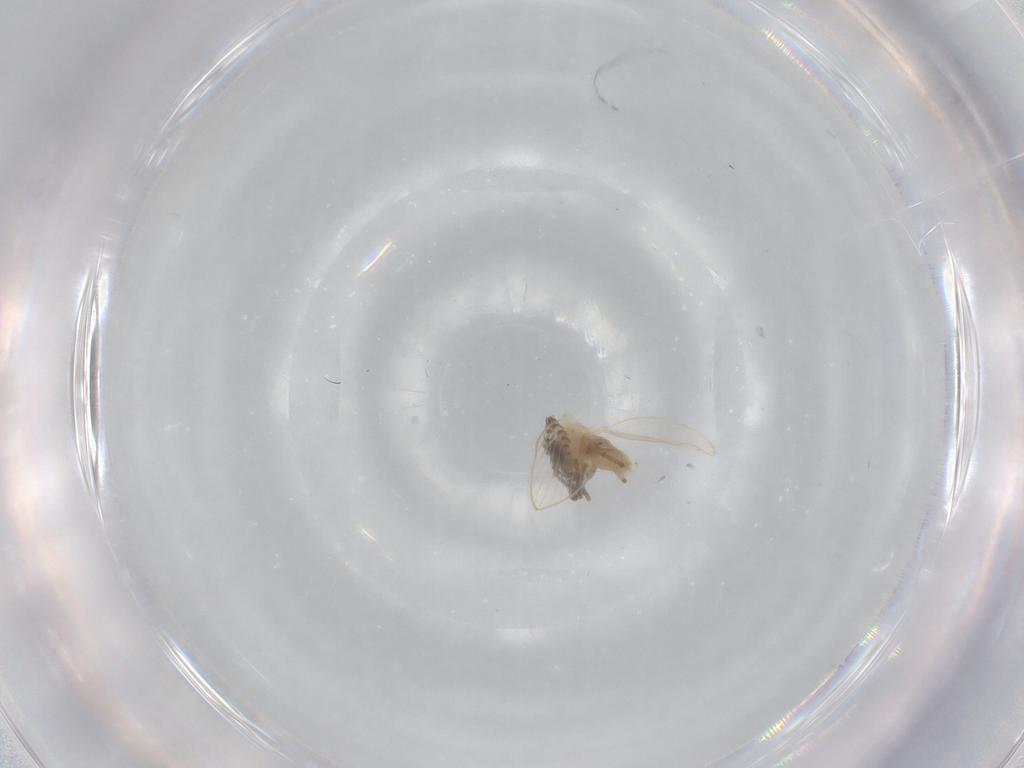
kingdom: Animalia
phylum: Arthropoda
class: Insecta
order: Diptera
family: Psychodidae
